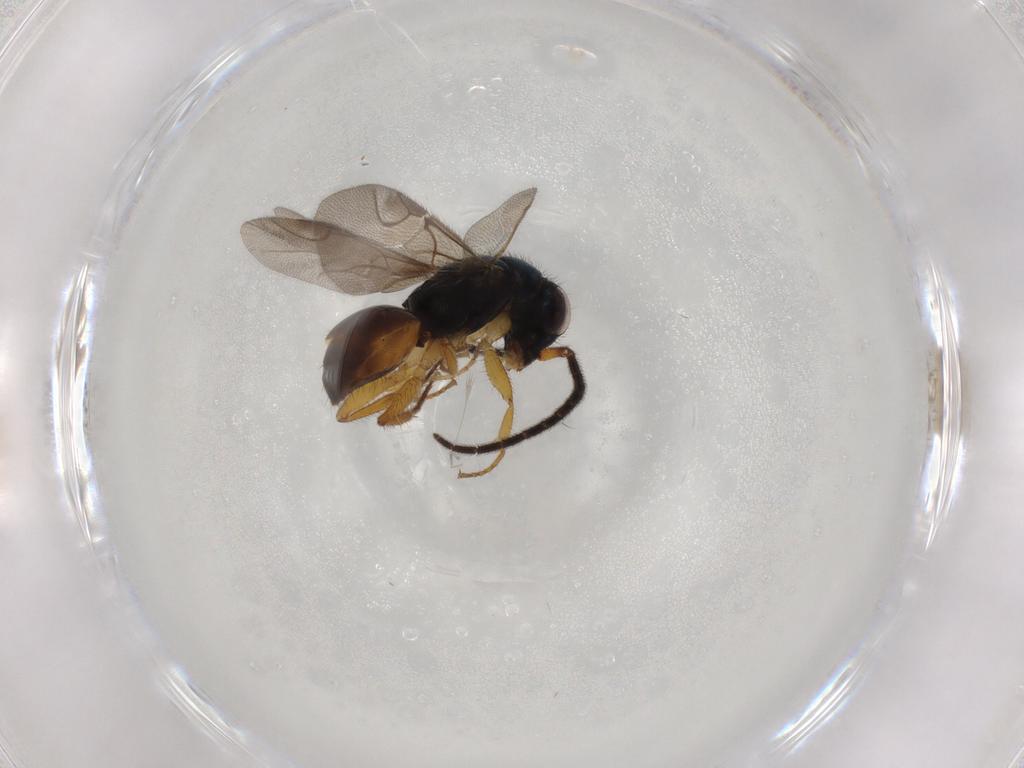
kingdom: Animalia
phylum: Arthropoda
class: Insecta
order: Hymenoptera
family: Chrysididae
